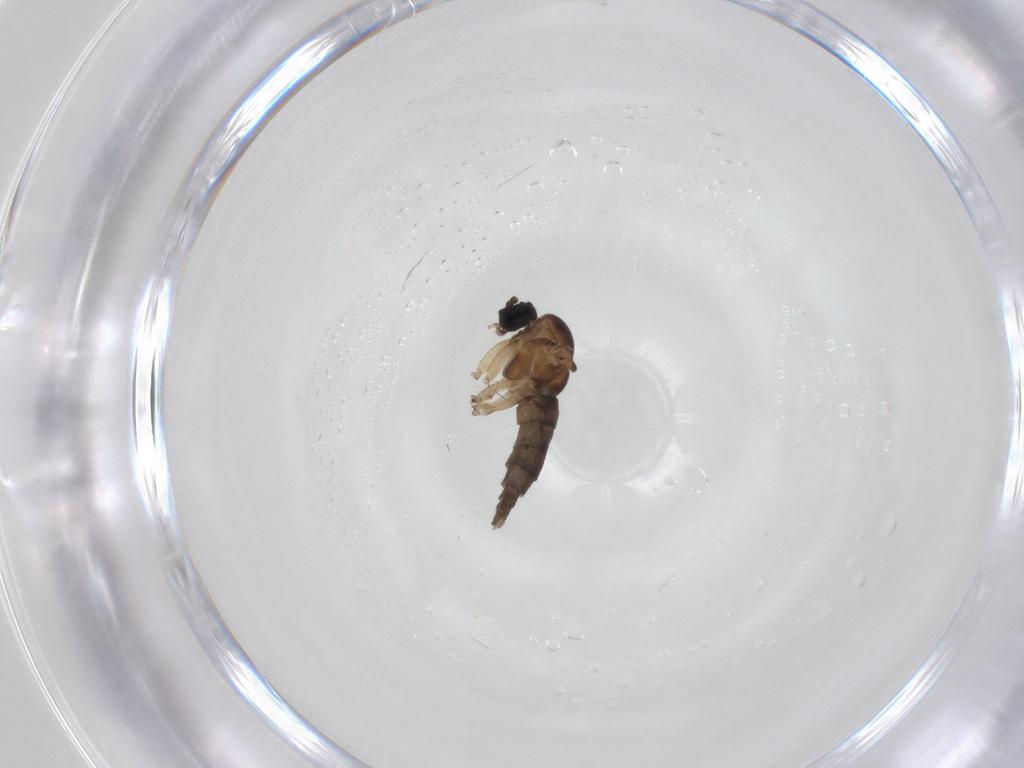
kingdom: Animalia
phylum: Arthropoda
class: Insecta
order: Diptera
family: Sciaridae
